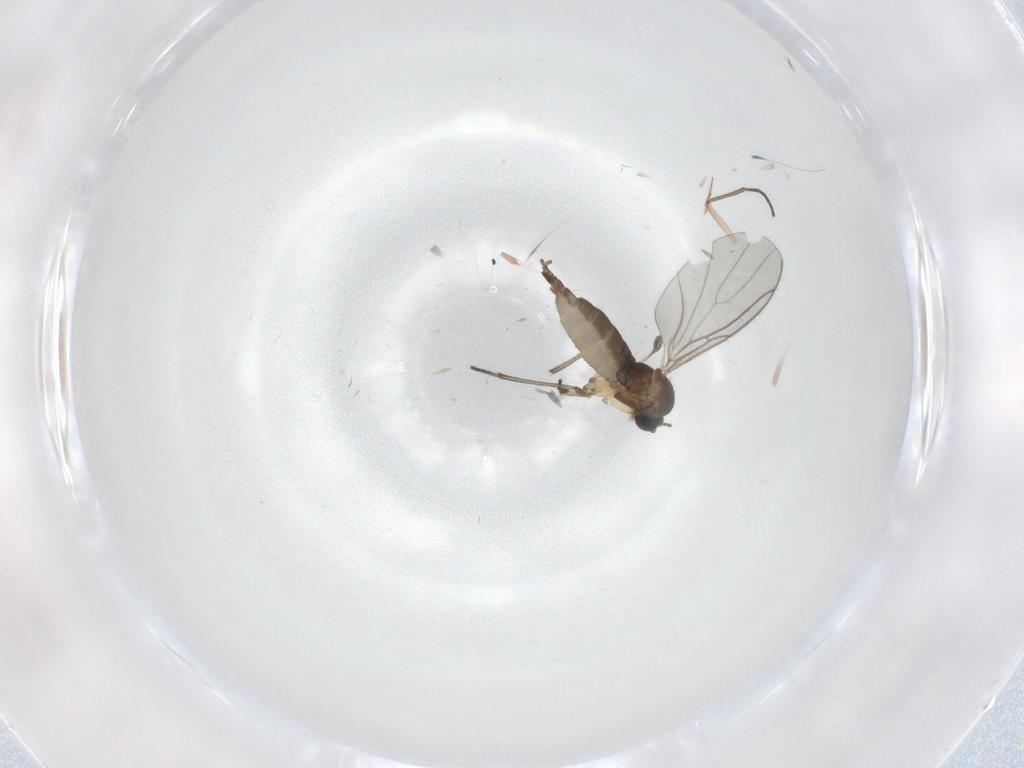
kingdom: Animalia
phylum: Arthropoda
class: Insecta
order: Diptera
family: Sciaridae
